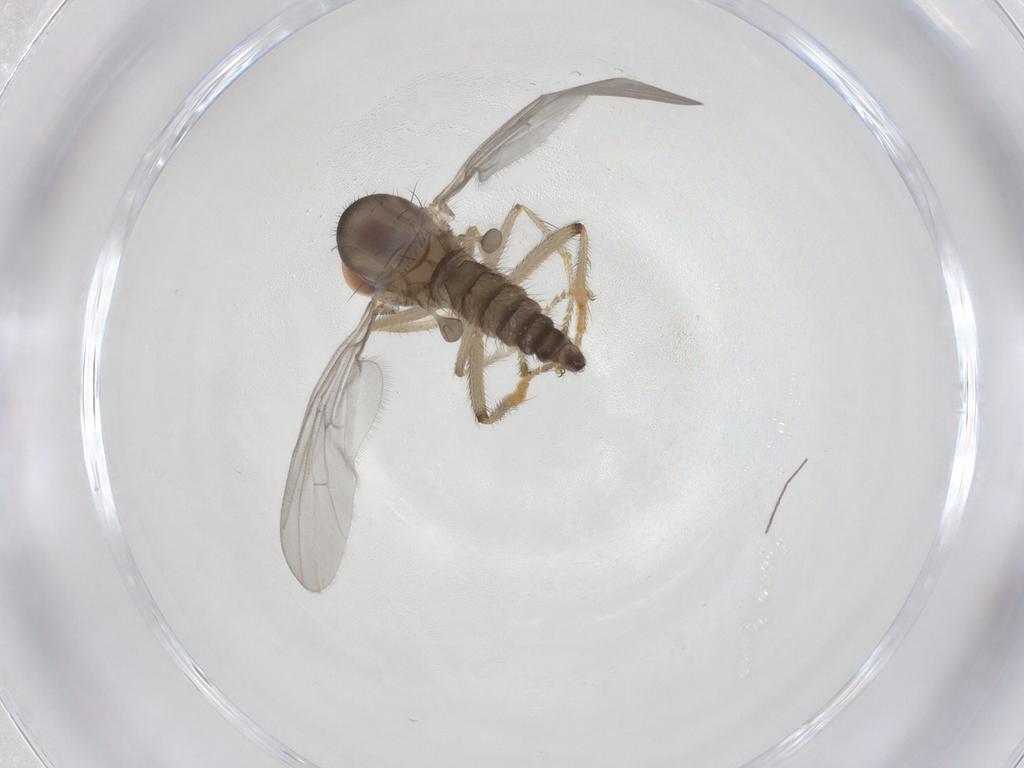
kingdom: Animalia
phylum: Arthropoda
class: Insecta
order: Diptera
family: Hybotidae
